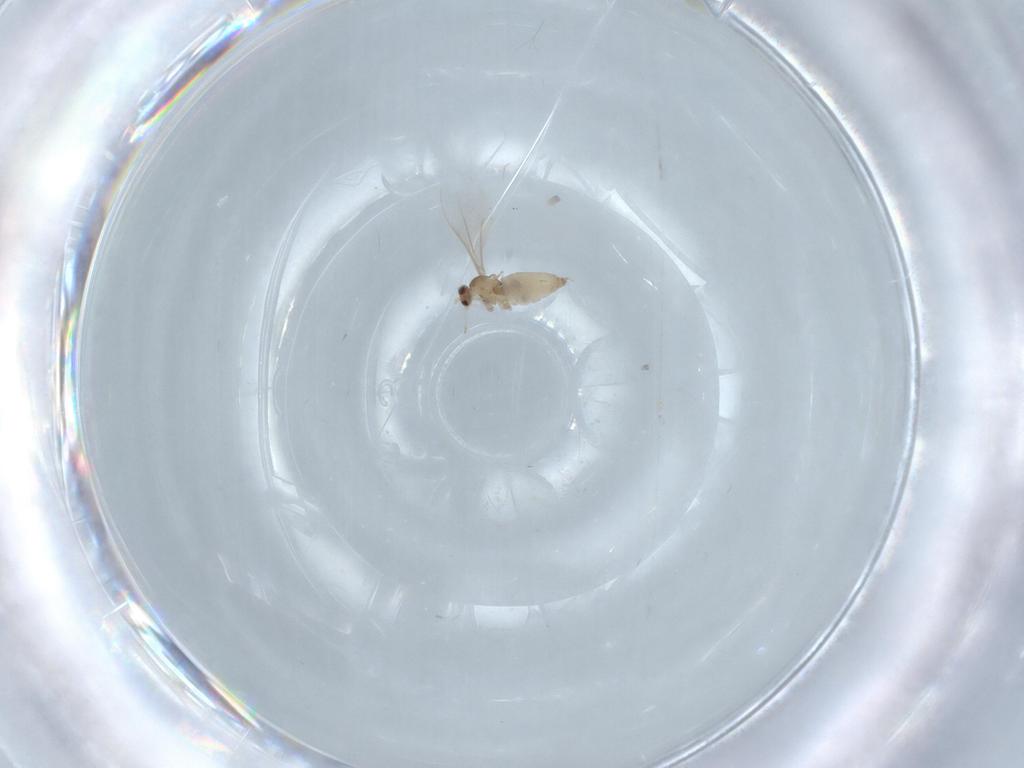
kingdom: Animalia
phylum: Arthropoda
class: Insecta
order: Diptera
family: Cecidomyiidae
